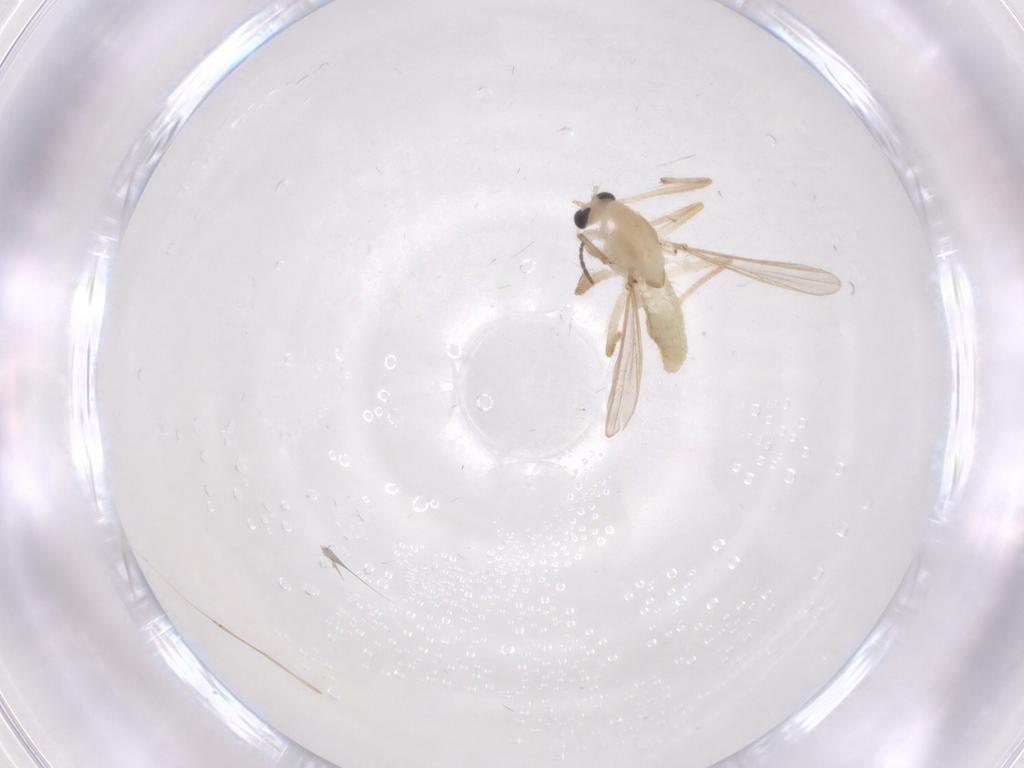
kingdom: Animalia
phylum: Arthropoda
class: Insecta
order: Diptera
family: Chironomidae
